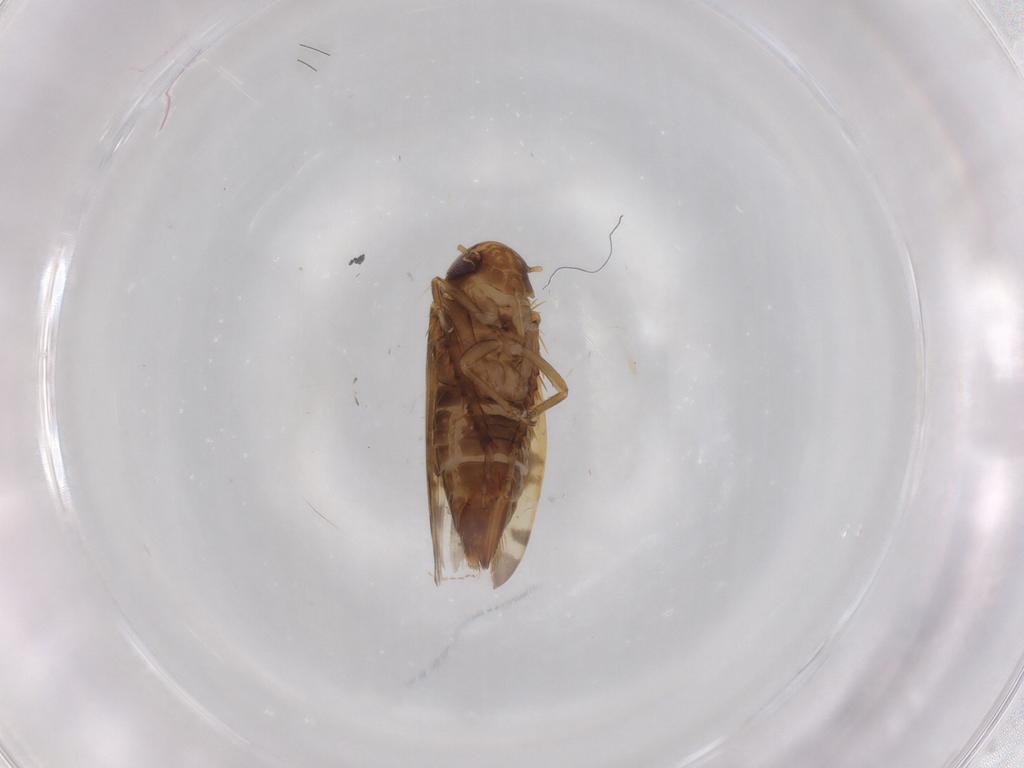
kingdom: Animalia
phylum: Arthropoda
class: Insecta
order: Hemiptera
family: Cicadellidae
